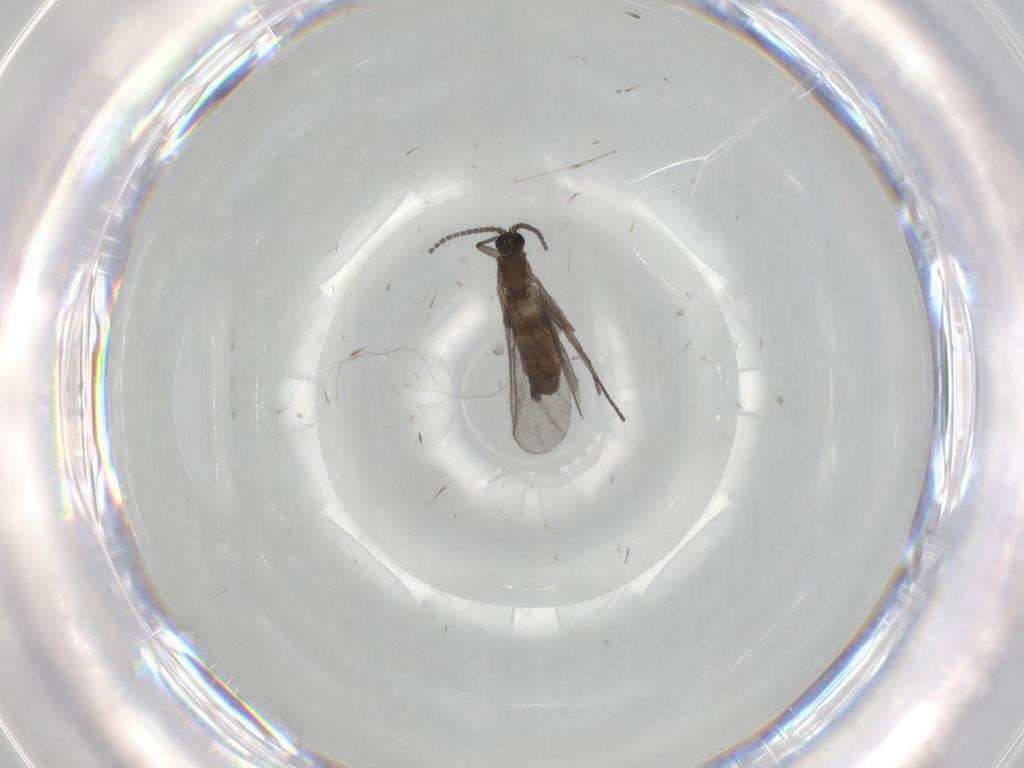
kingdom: Animalia
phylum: Arthropoda
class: Insecta
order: Diptera
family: Sciaridae
